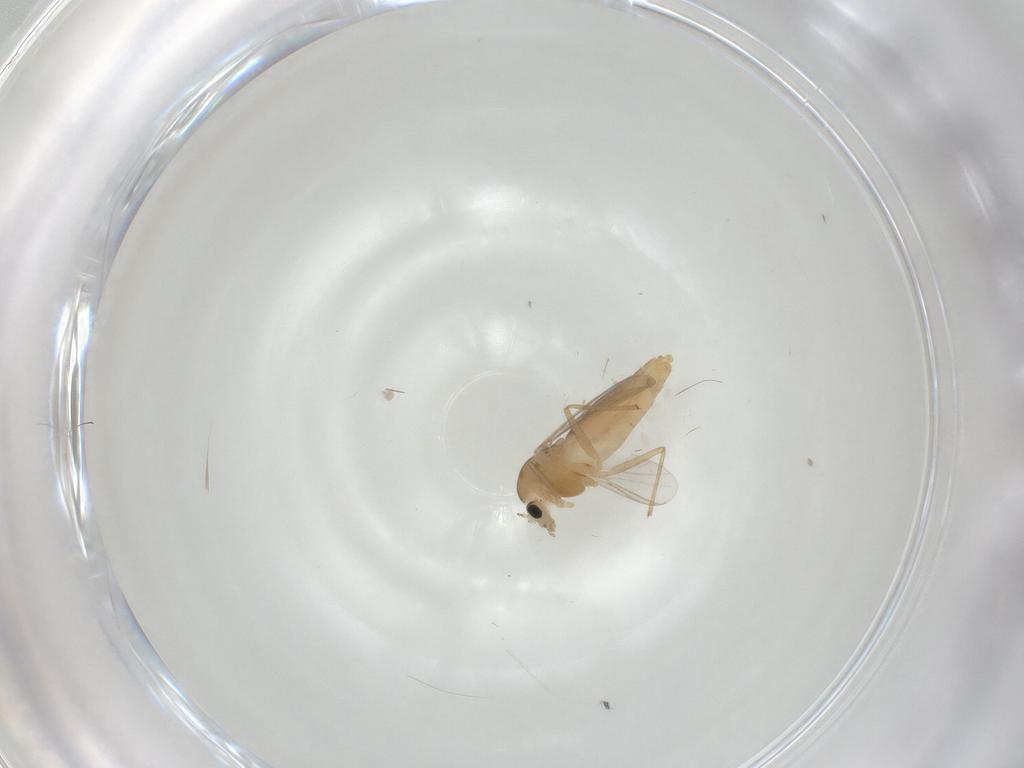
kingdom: Animalia
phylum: Arthropoda
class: Insecta
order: Diptera
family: Chironomidae
